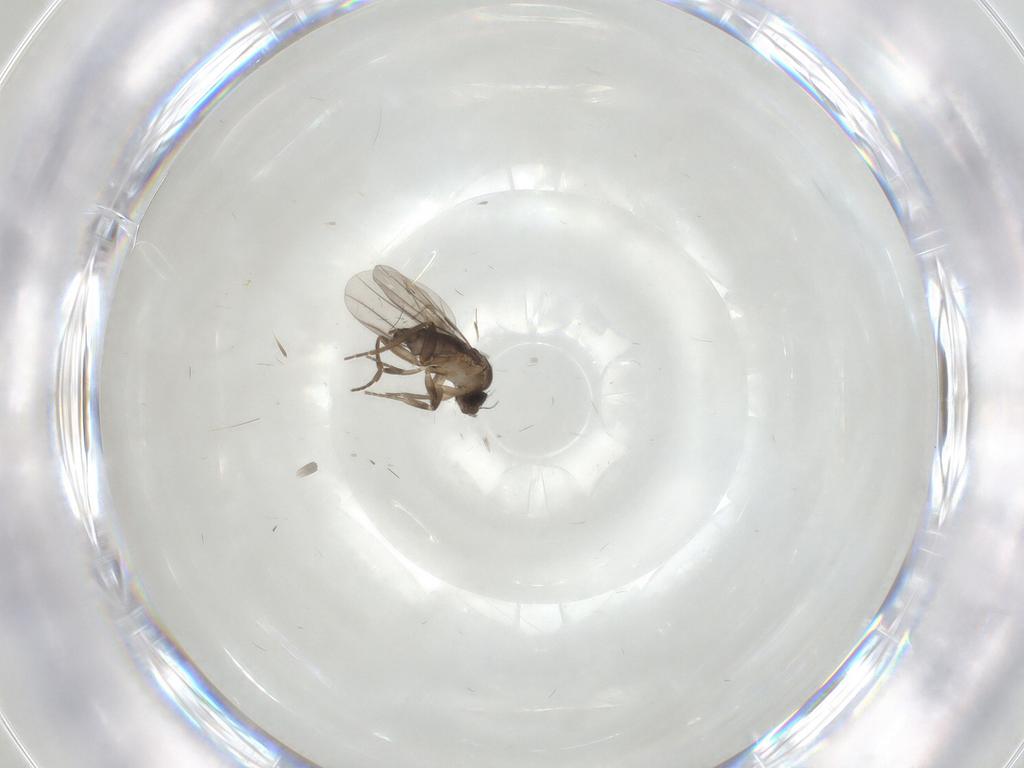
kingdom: Animalia
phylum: Arthropoda
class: Insecta
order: Diptera
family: Phoridae
